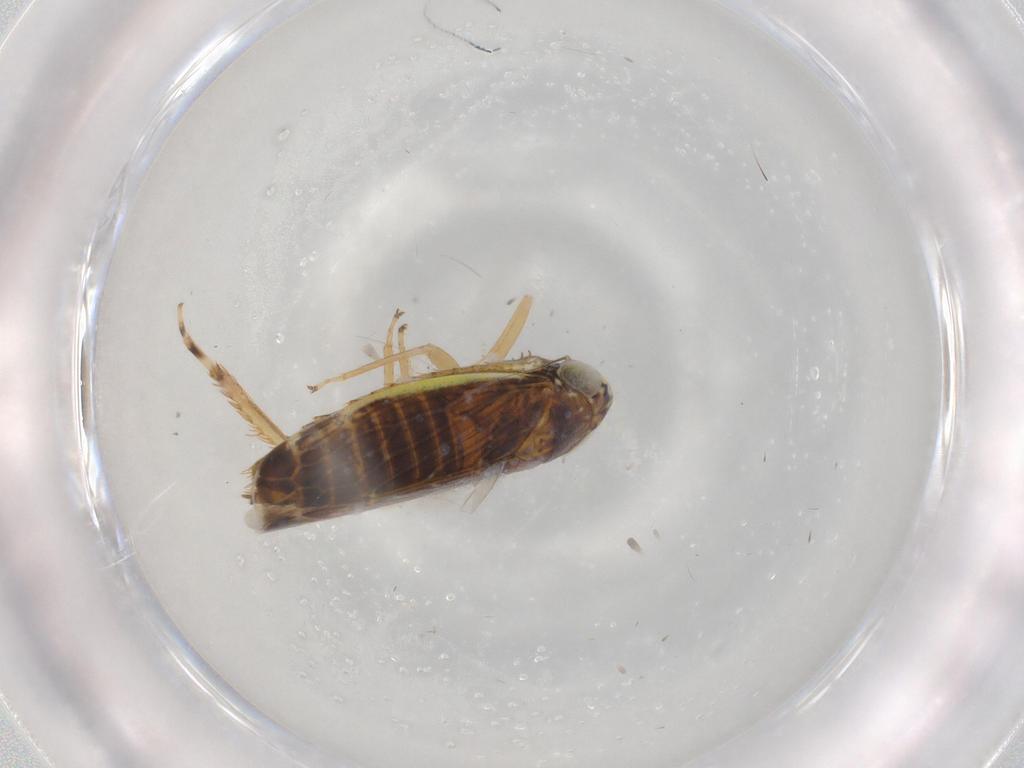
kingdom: Animalia
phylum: Arthropoda
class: Insecta
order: Hemiptera
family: Cicadellidae
